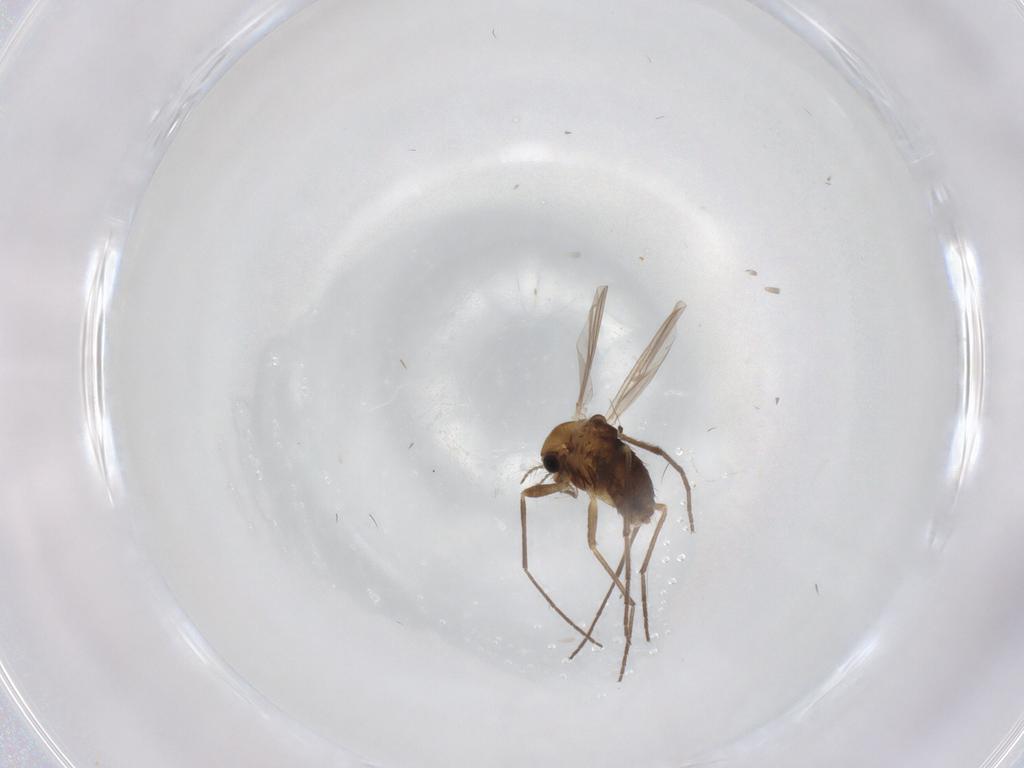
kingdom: Animalia
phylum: Arthropoda
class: Insecta
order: Diptera
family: Chironomidae
